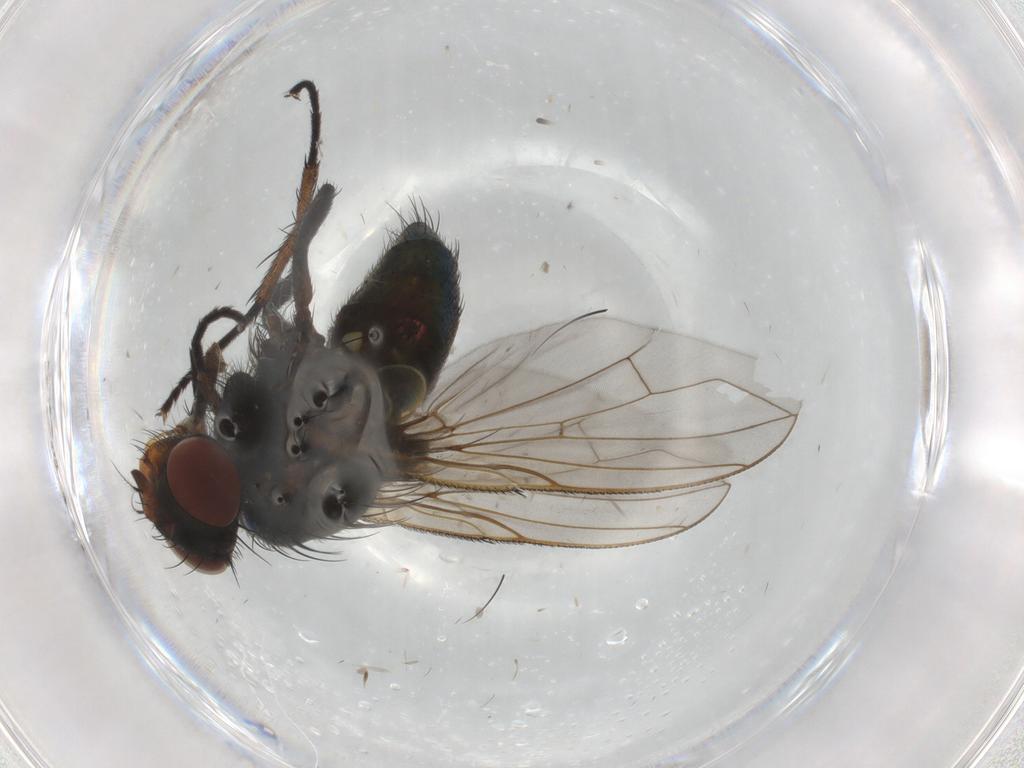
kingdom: Animalia
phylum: Arthropoda
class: Insecta
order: Diptera
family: Calliphoridae
